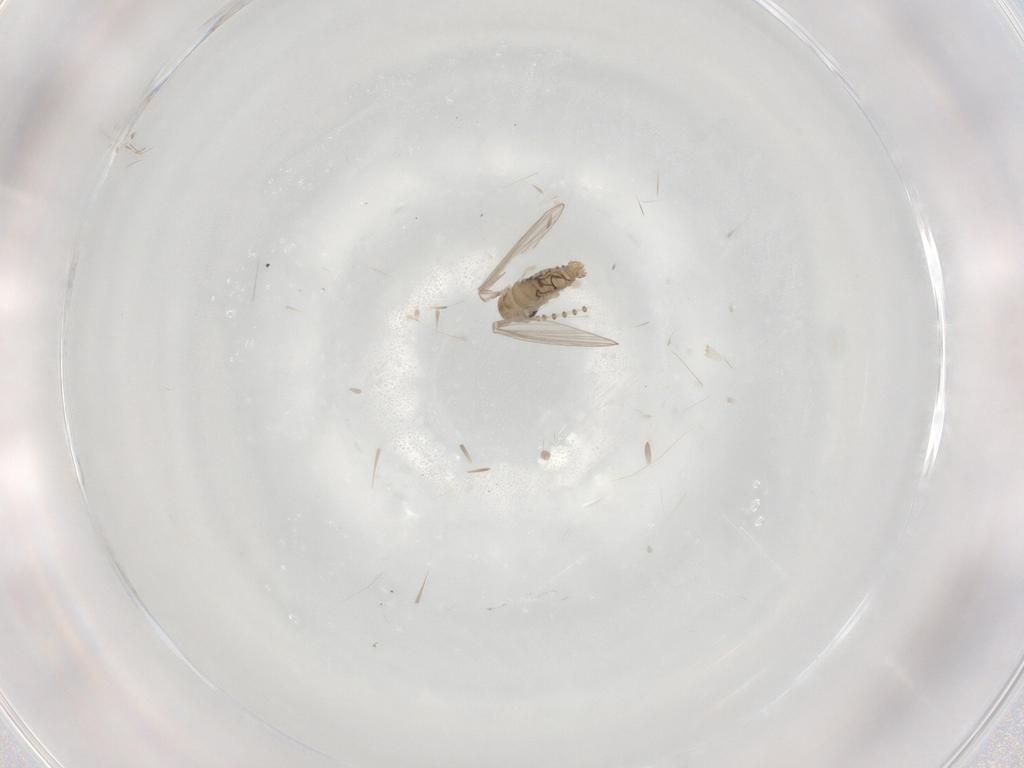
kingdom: Animalia
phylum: Arthropoda
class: Insecta
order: Diptera
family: Psychodidae
